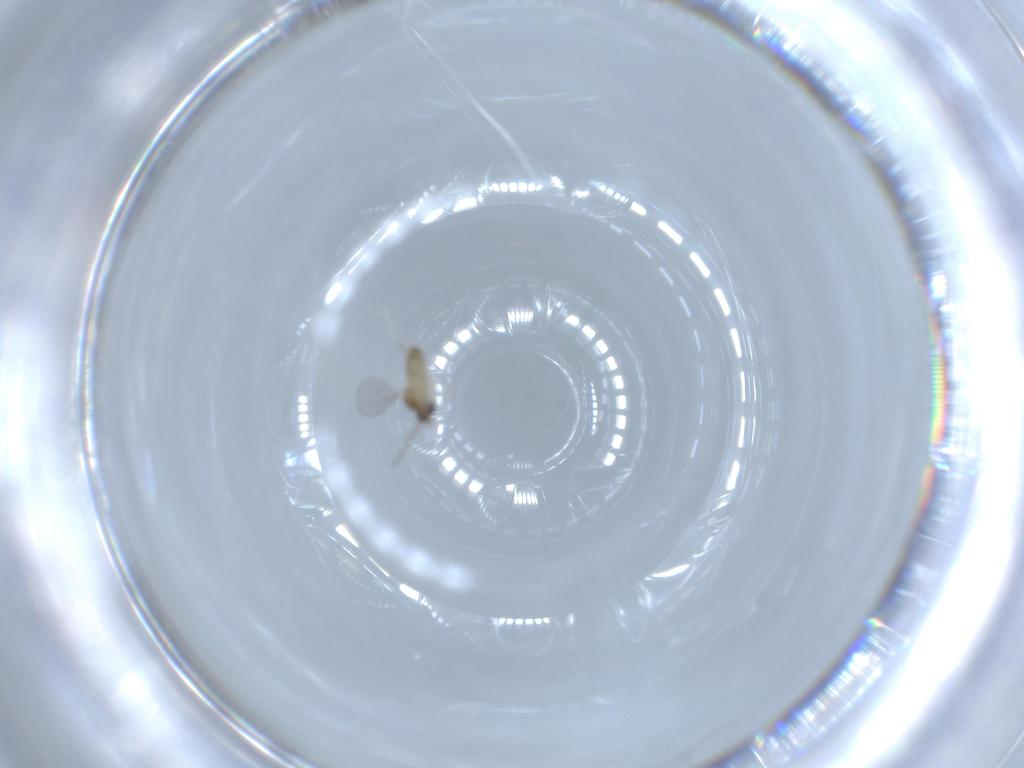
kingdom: Animalia
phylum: Arthropoda
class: Insecta
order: Diptera
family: Cecidomyiidae
